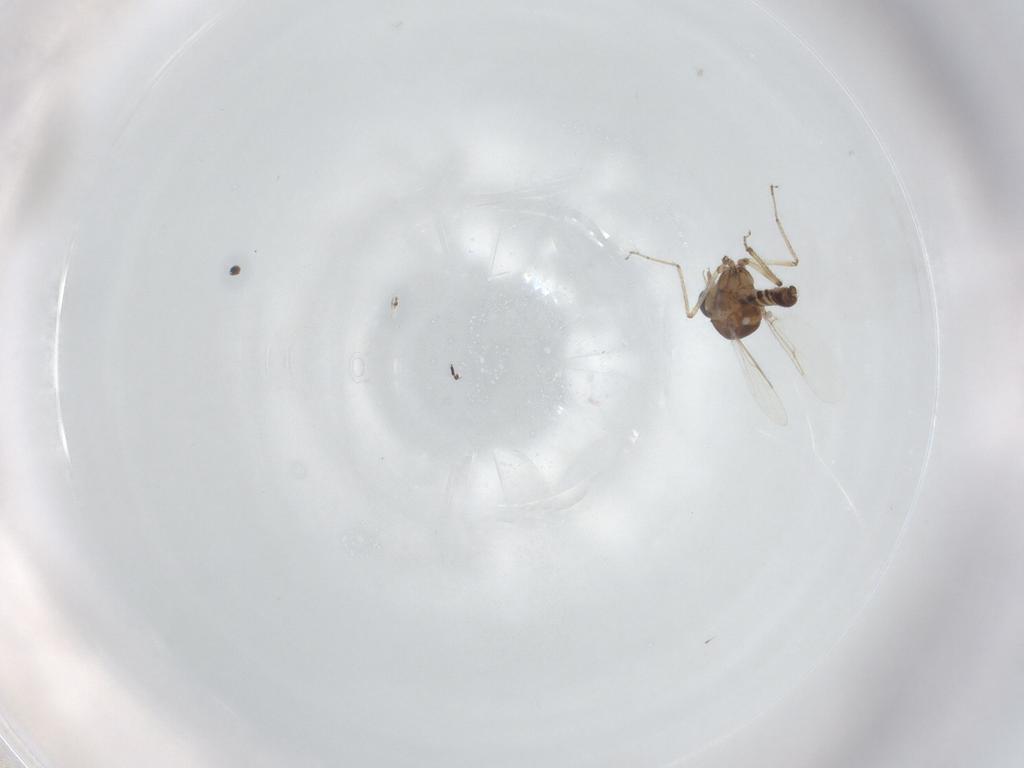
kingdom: Animalia
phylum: Arthropoda
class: Insecta
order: Diptera
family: Ceratopogonidae
